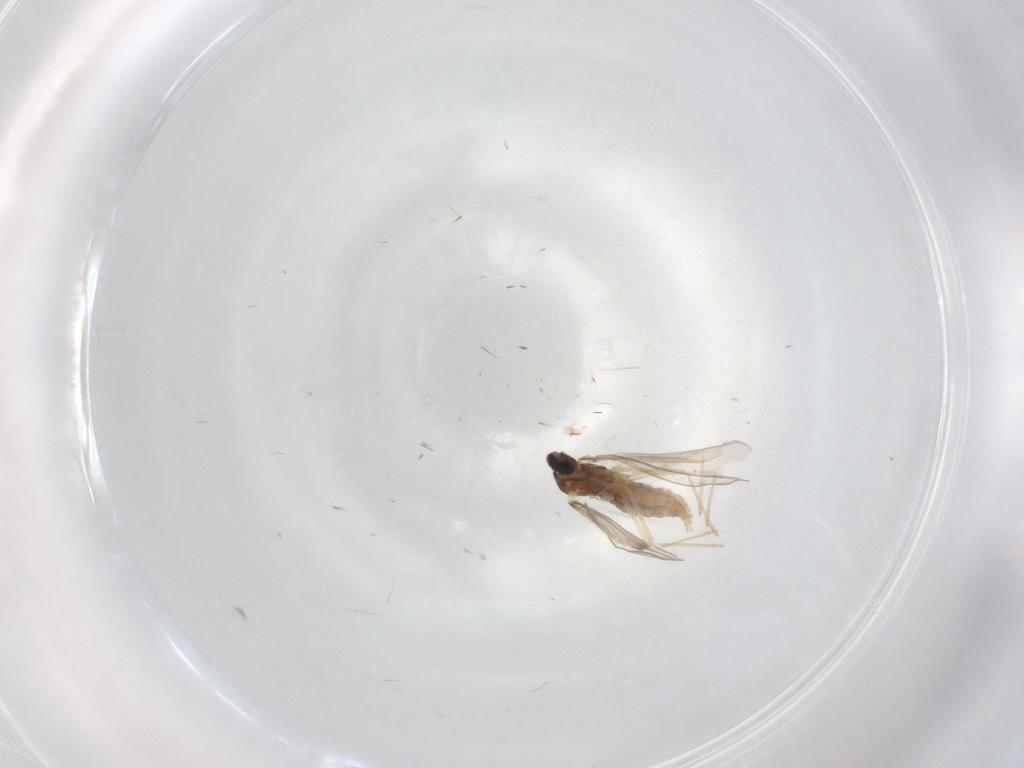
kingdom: Animalia
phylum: Arthropoda
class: Insecta
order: Diptera
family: Cecidomyiidae
